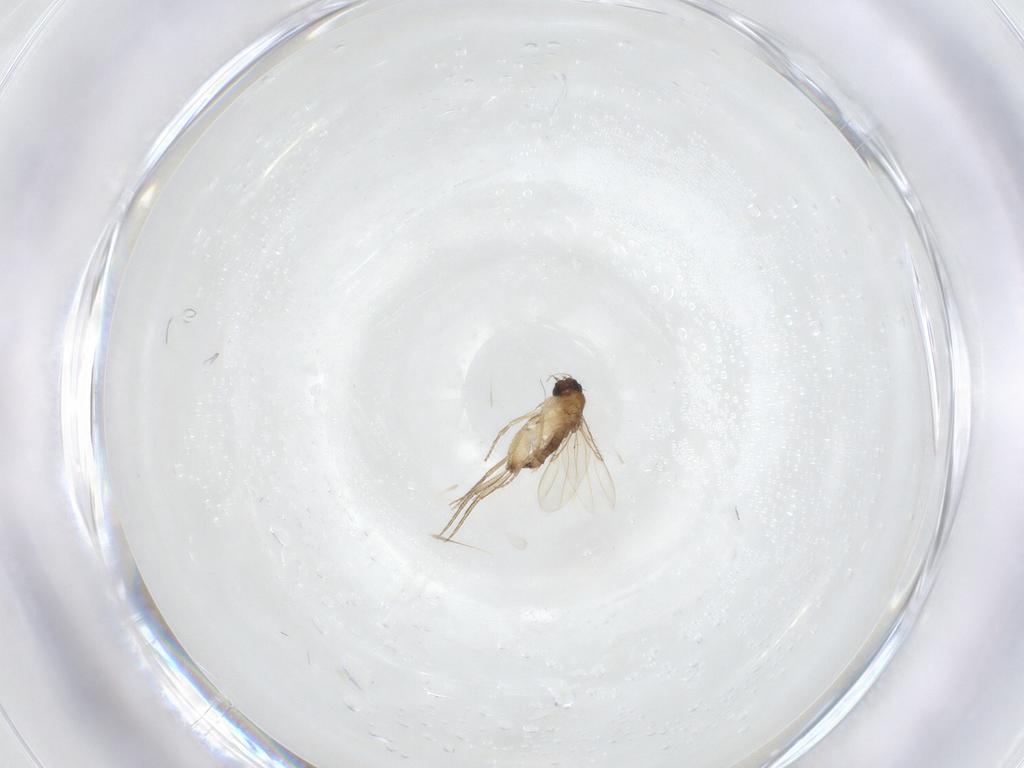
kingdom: Animalia
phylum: Arthropoda
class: Insecta
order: Diptera
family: Phoridae
